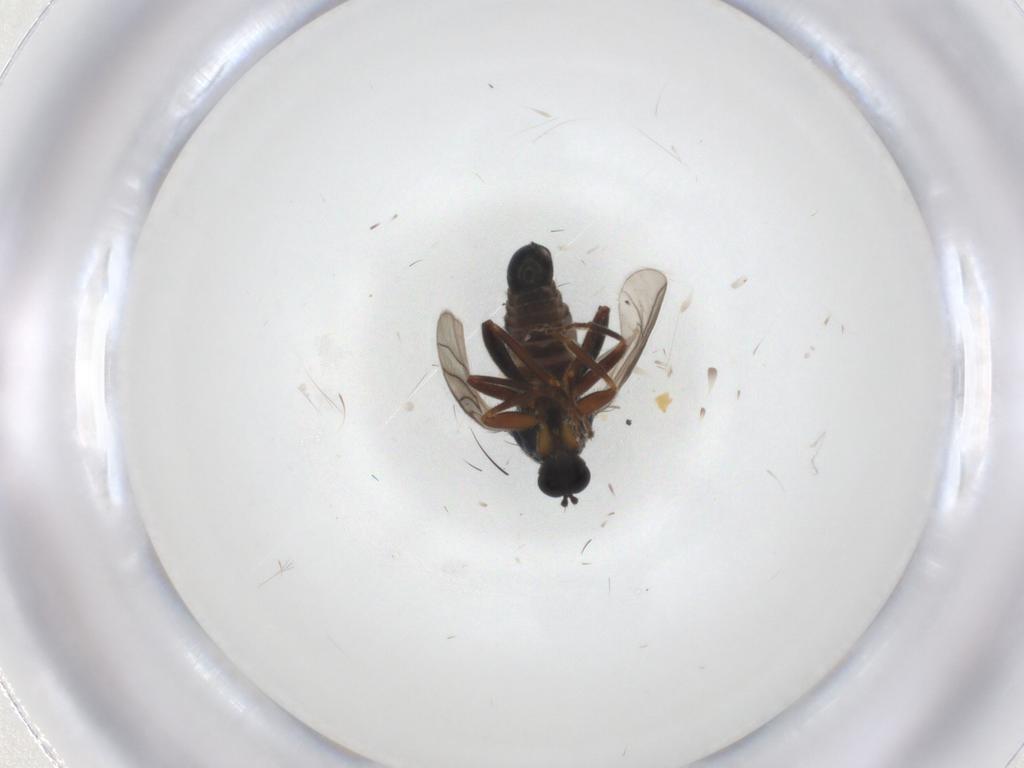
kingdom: Animalia
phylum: Arthropoda
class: Insecta
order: Diptera
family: Cecidomyiidae
